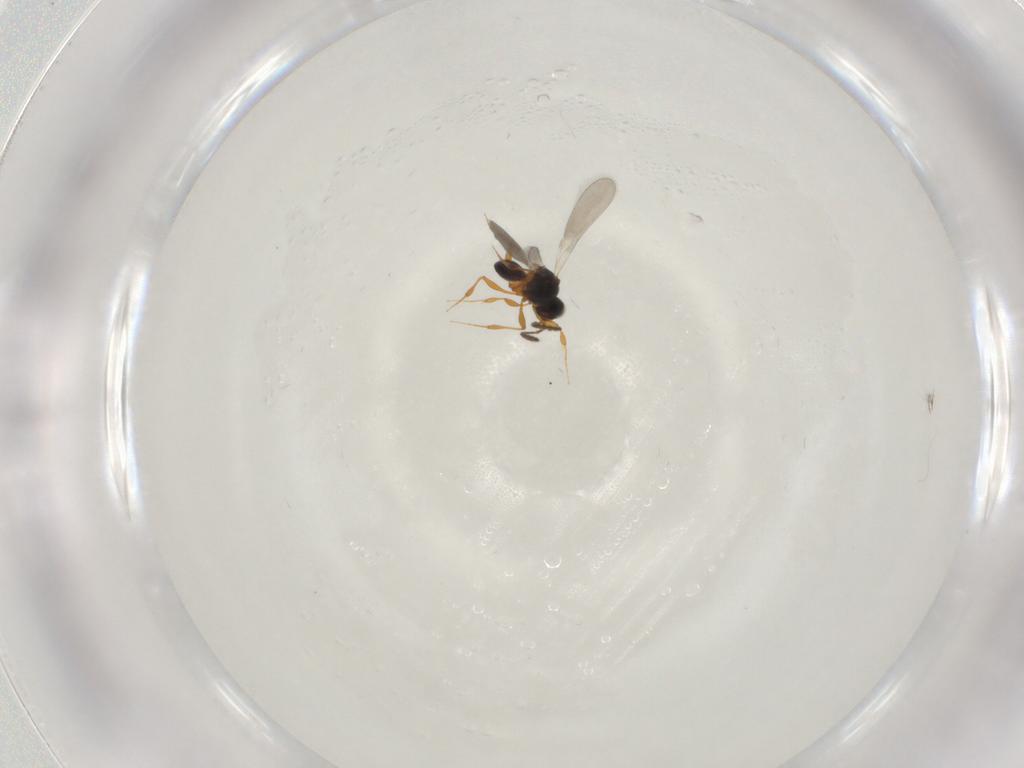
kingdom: Animalia
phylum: Arthropoda
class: Insecta
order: Hymenoptera
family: Platygastridae
